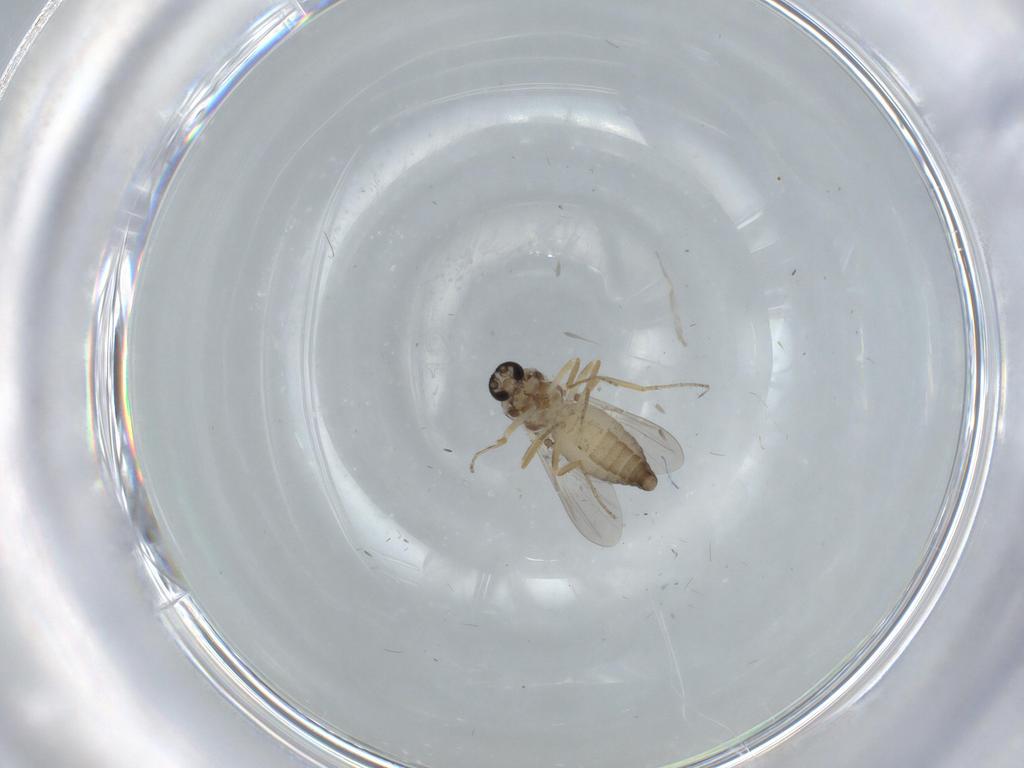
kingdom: Animalia
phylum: Arthropoda
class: Insecta
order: Diptera
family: Ceratopogonidae
